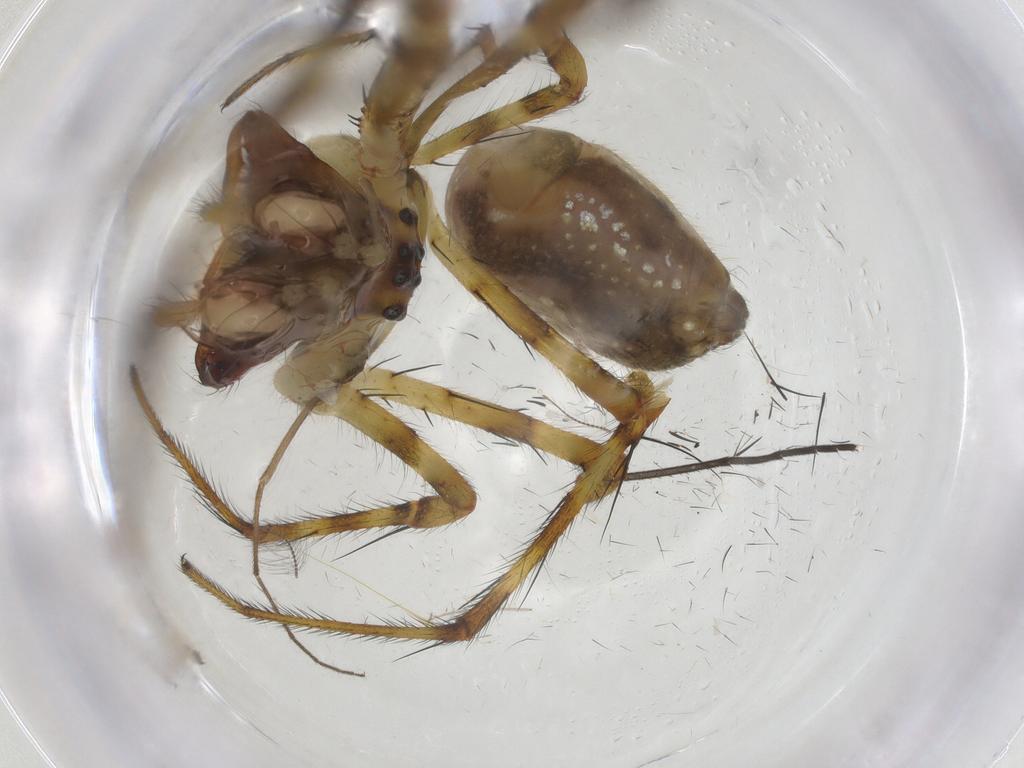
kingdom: Animalia
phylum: Arthropoda
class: Arachnida
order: Araneae
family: Tetragnathidae
